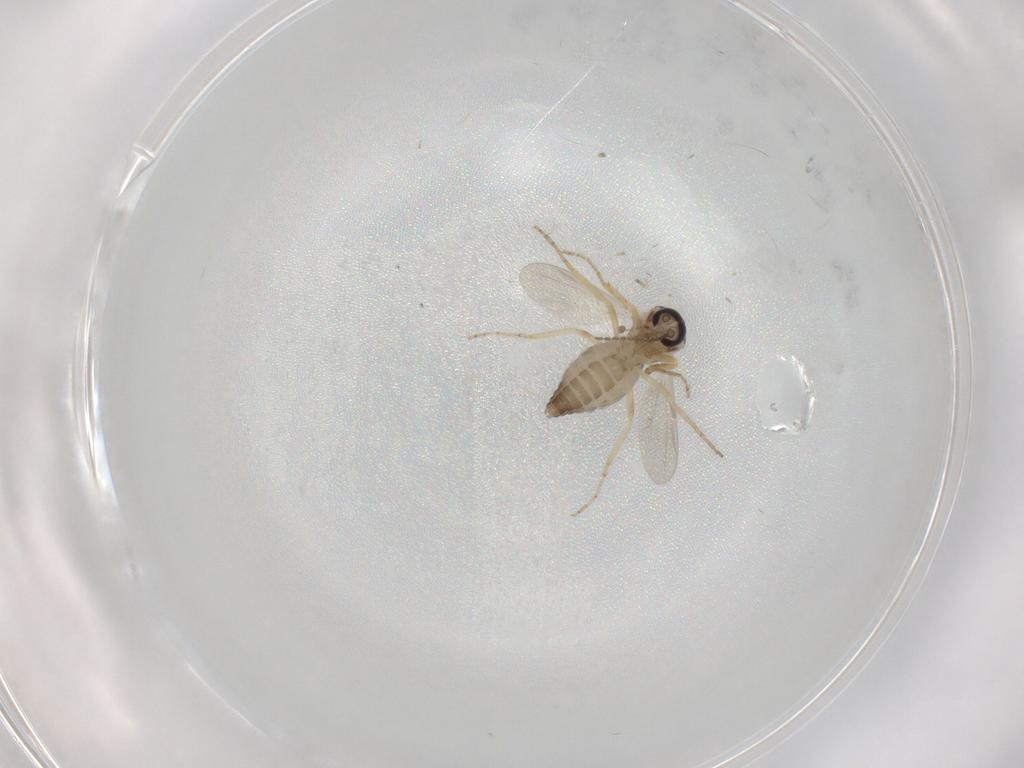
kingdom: Animalia
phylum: Arthropoda
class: Insecta
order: Diptera
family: Ceratopogonidae
